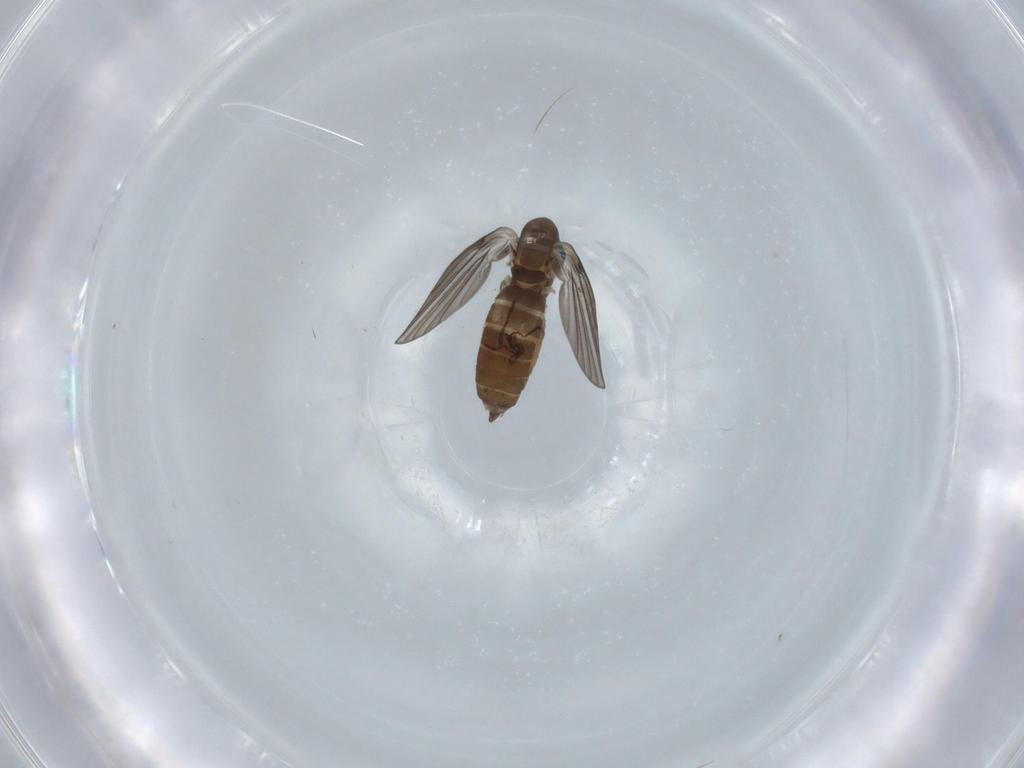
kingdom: Animalia
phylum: Arthropoda
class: Insecta
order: Diptera
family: Psychodidae
